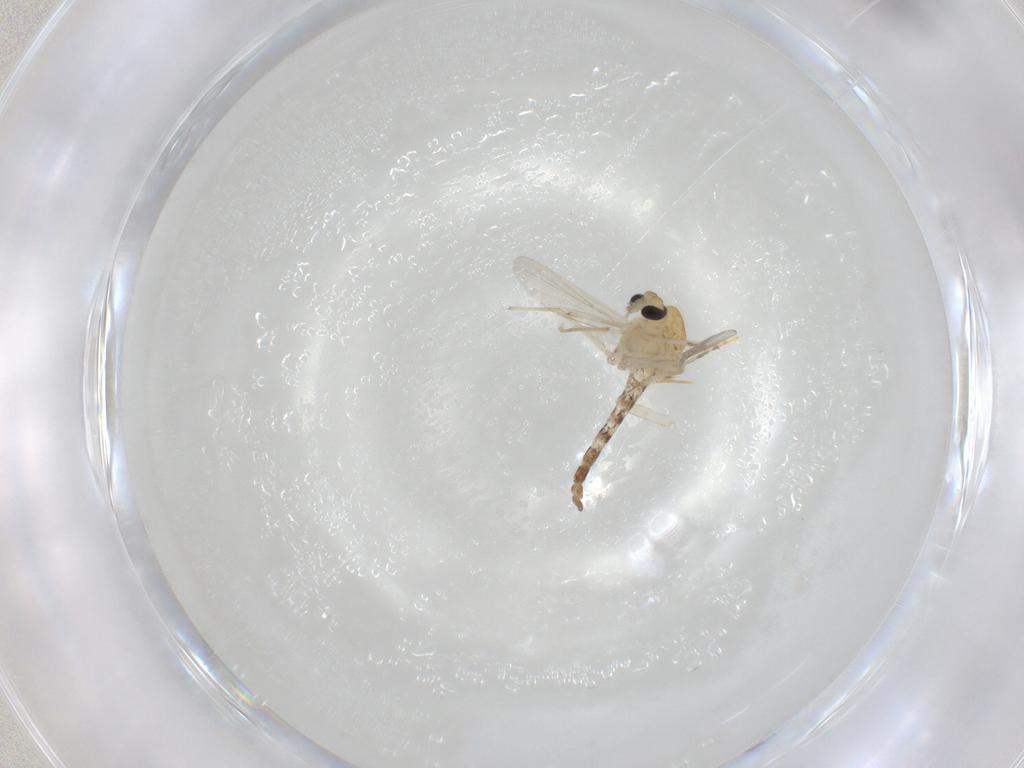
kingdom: Animalia
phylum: Arthropoda
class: Insecta
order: Diptera
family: Chironomidae
